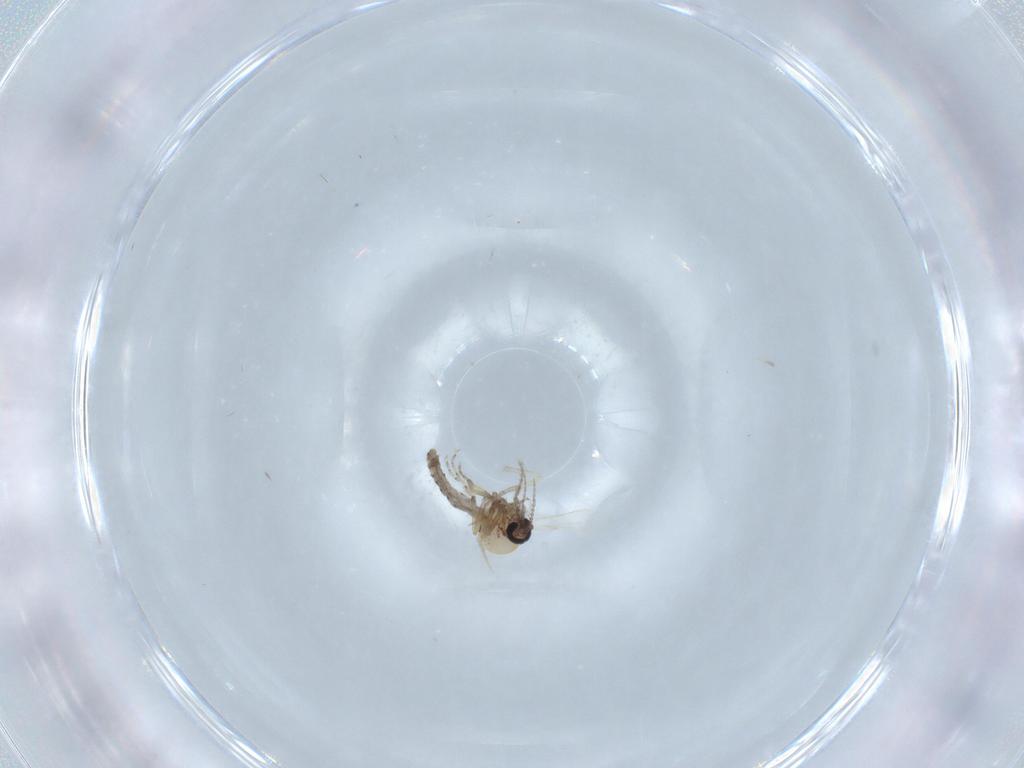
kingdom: Animalia
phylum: Arthropoda
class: Insecta
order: Diptera
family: Ceratopogonidae
